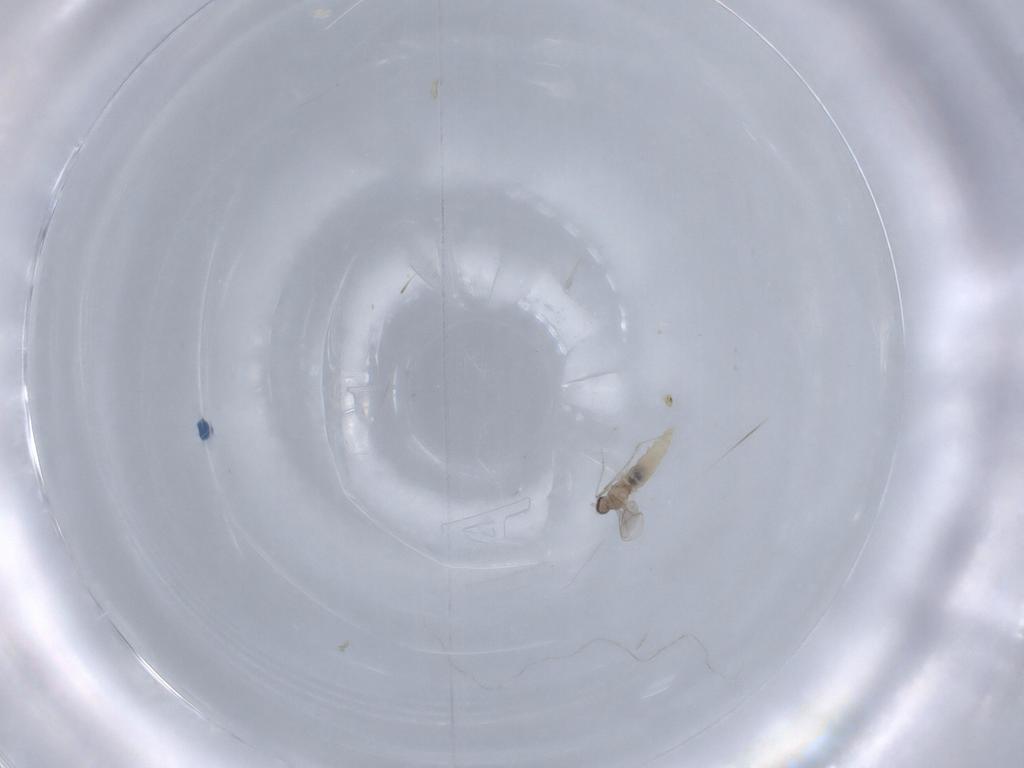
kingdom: Animalia
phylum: Arthropoda
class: Insecta
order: Diptera
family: Cecidomyiidae
